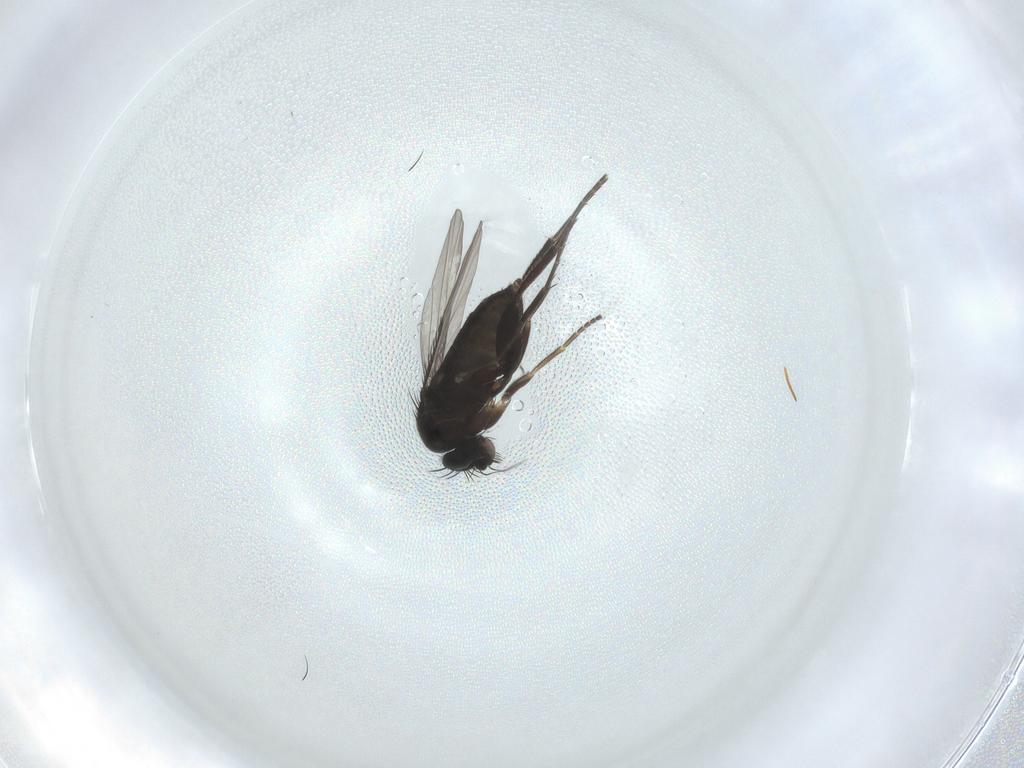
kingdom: Animalia
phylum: Arthropoda
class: Insecta
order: Diptera
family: Phoridae
